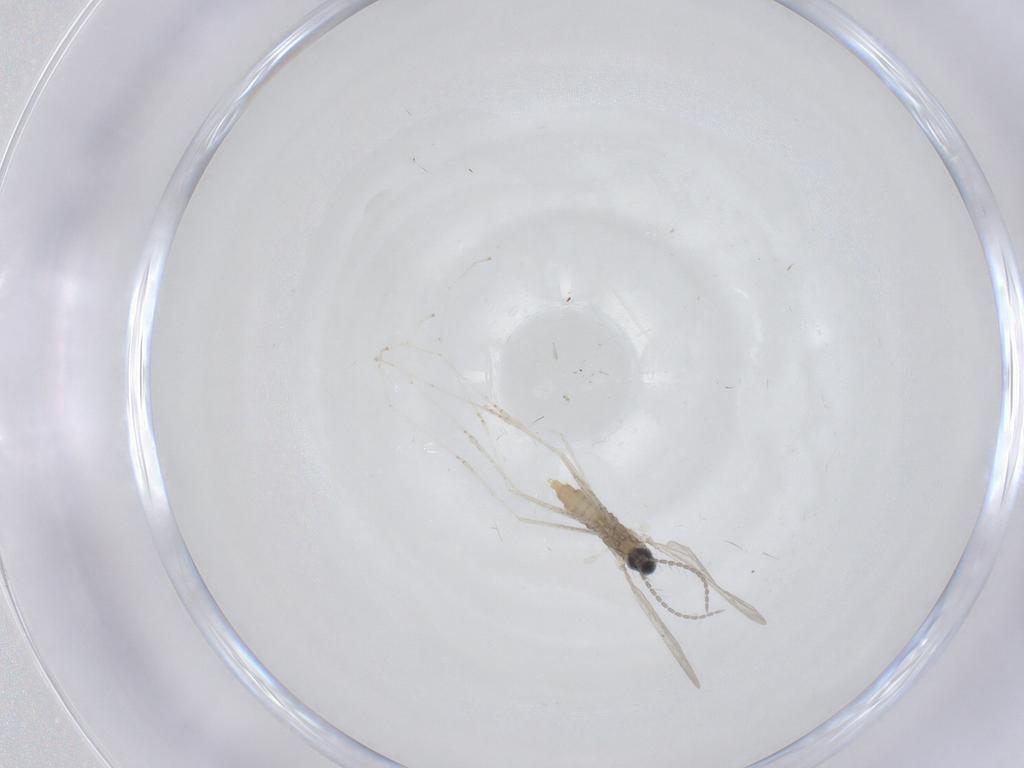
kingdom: Animalia
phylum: Arthropoda
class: Insecta
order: Diptera
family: Cecidomyiidae
